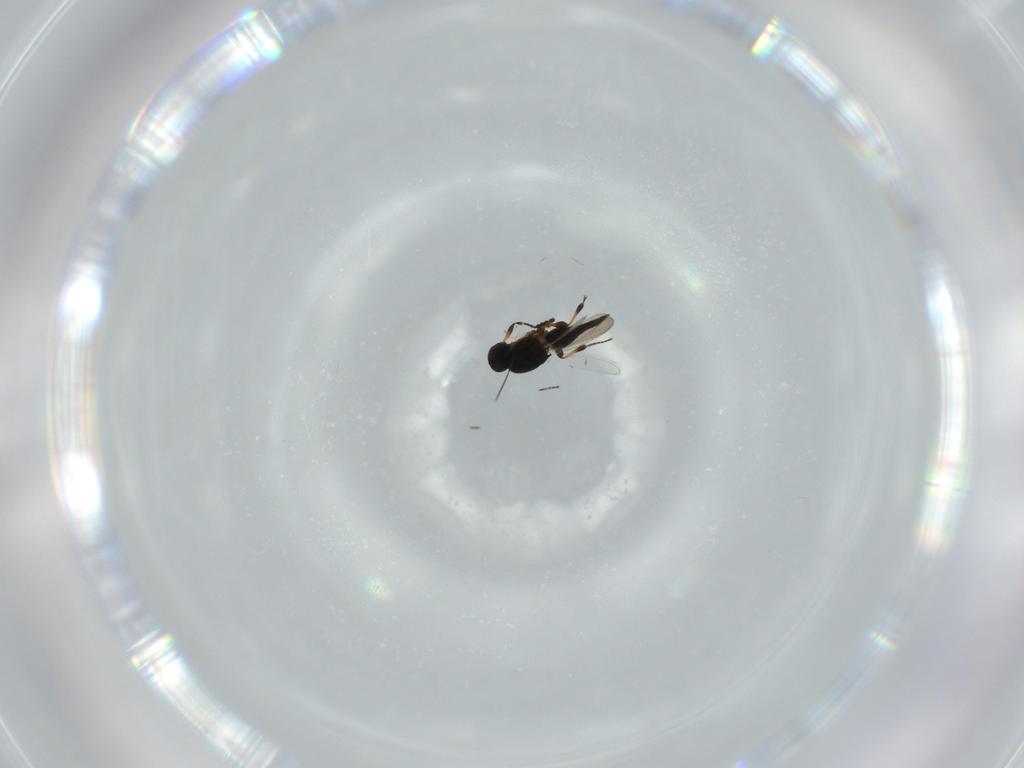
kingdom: Animalia
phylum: Arthropoda
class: Insecta
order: Hymenoptera
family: Platygastridae
